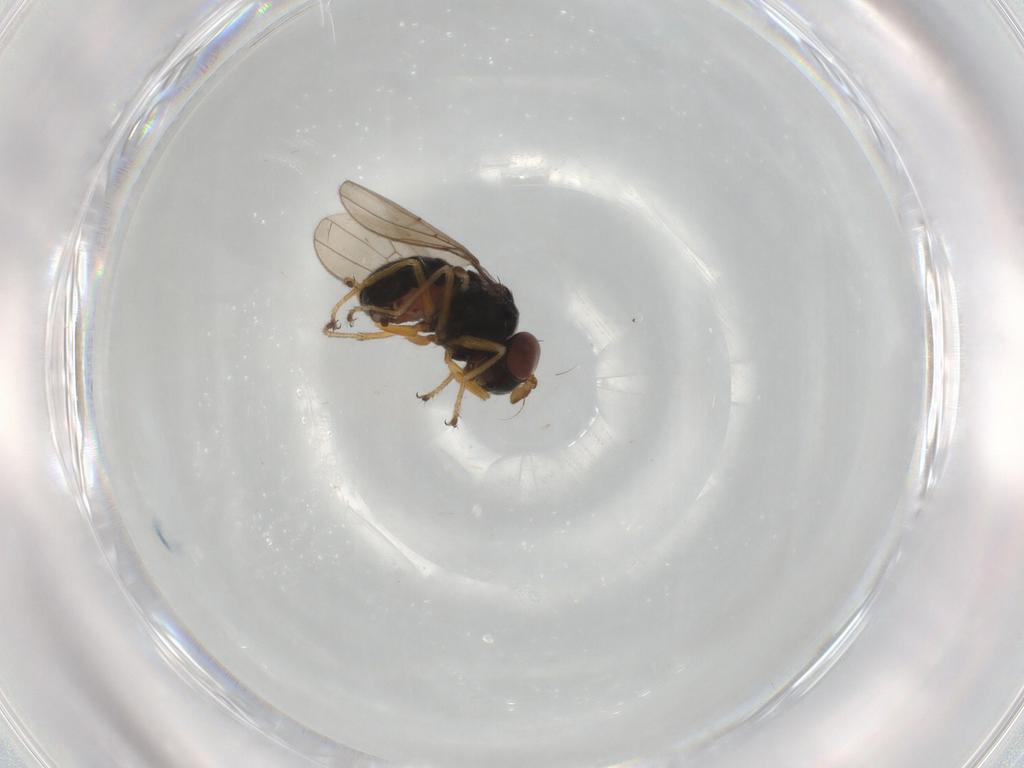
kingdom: Animalia
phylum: Arthropoda
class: Insecta
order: Diptera
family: Ephydridae
